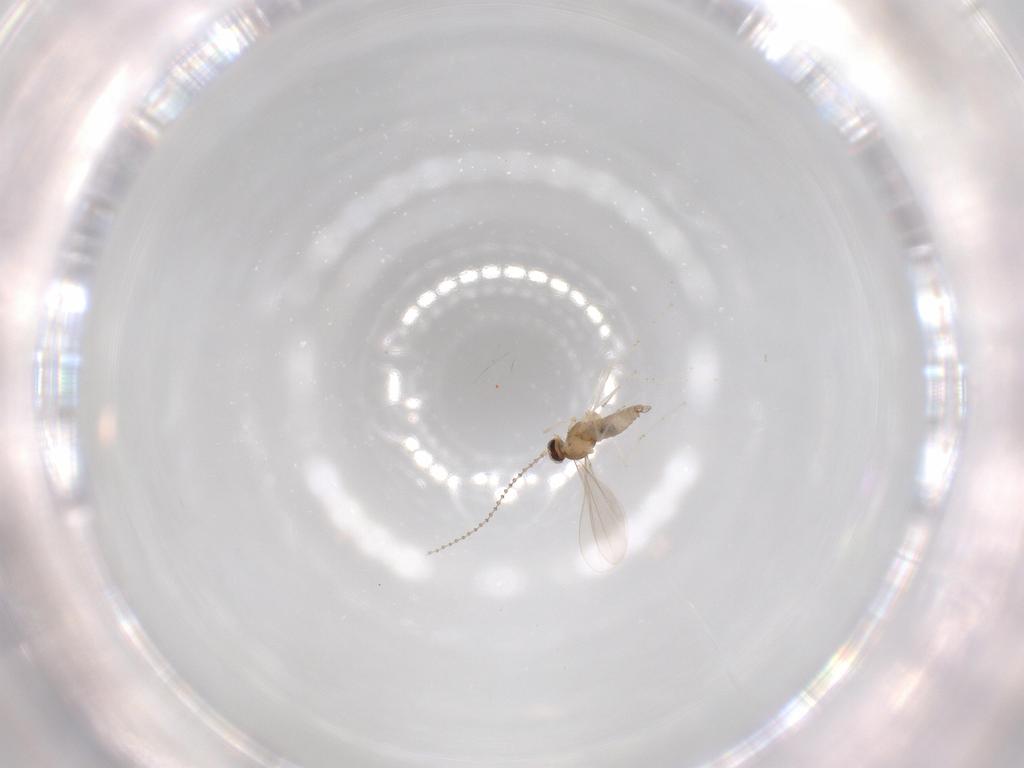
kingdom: Animalia
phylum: Arthropoda
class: Insecta
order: Diptera
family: Chironomidae
